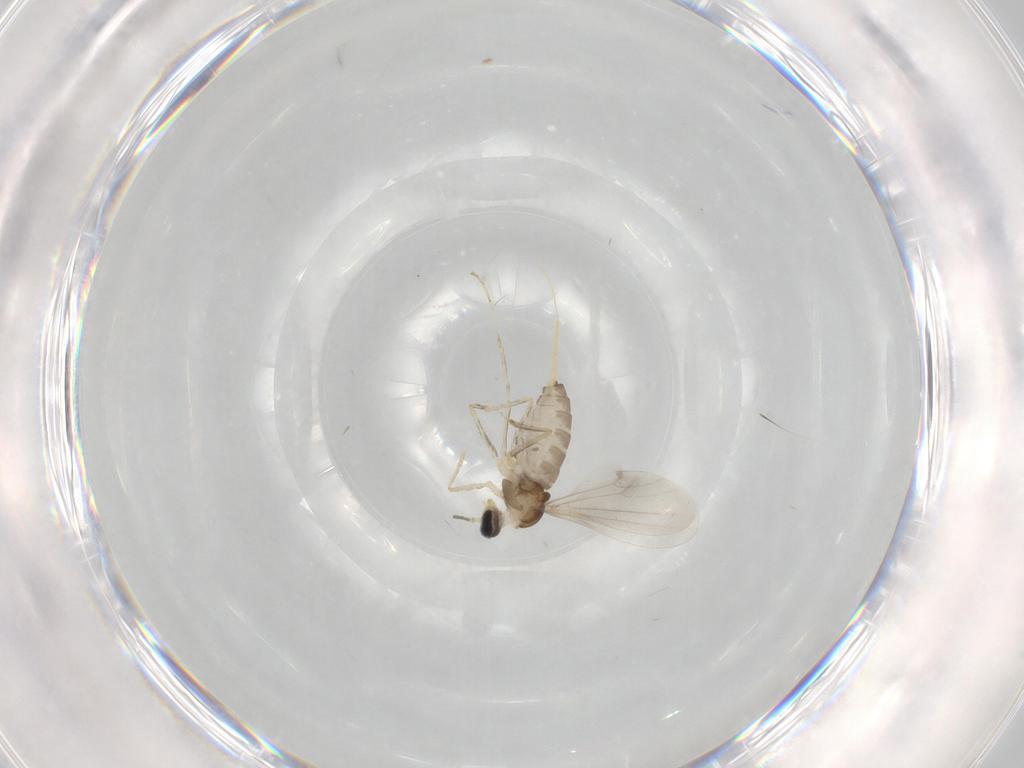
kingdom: Animalia
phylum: Arthropoda
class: Insecta
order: Diptera
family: Cecidomyiidae
